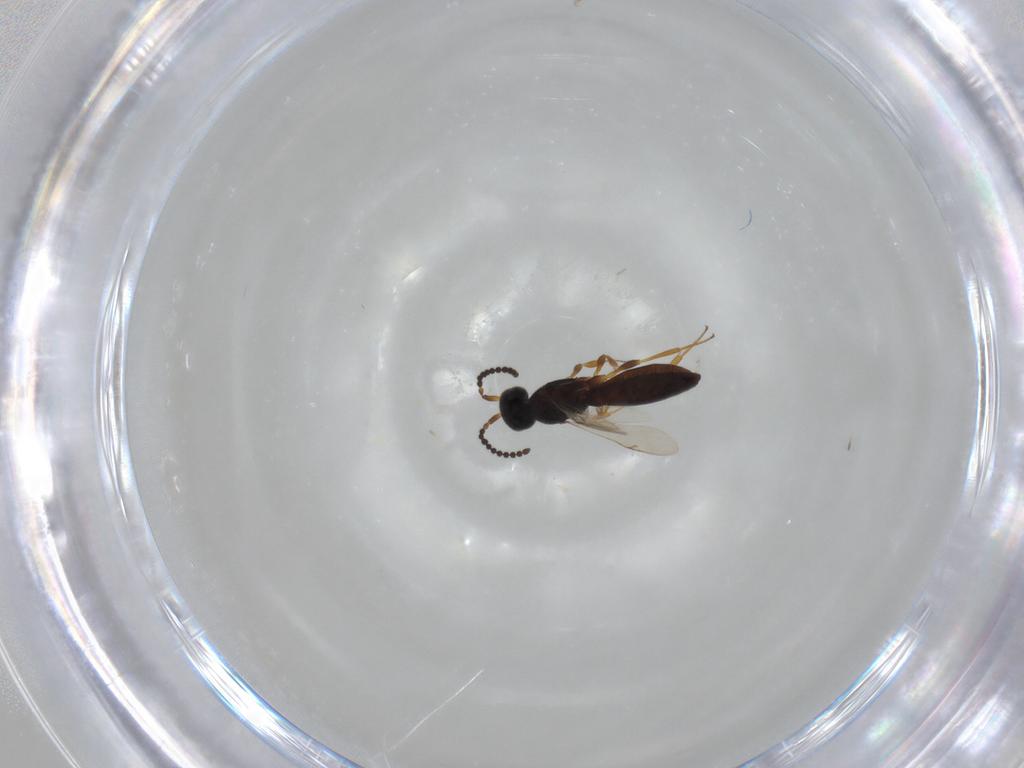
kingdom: Animalia
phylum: Arthropoda
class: Insecta
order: Hymenoptera
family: Scelionidae
